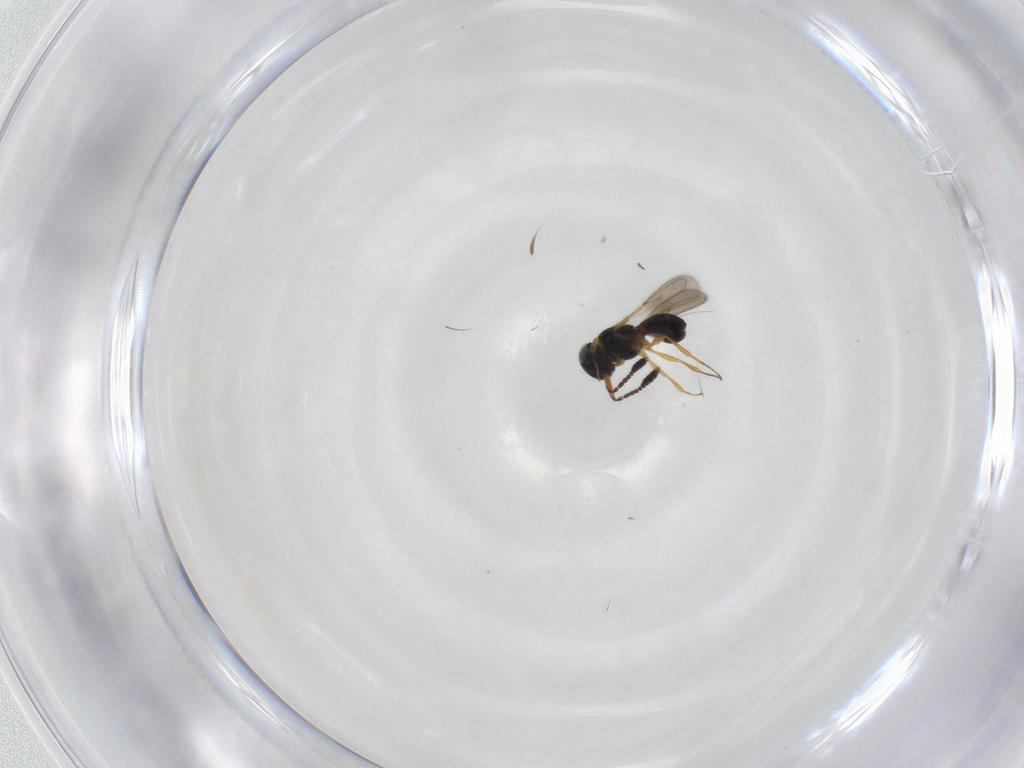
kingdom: Animalia
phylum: Arthropoda
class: Insecta
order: Hymenoptera
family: Scelionidae
